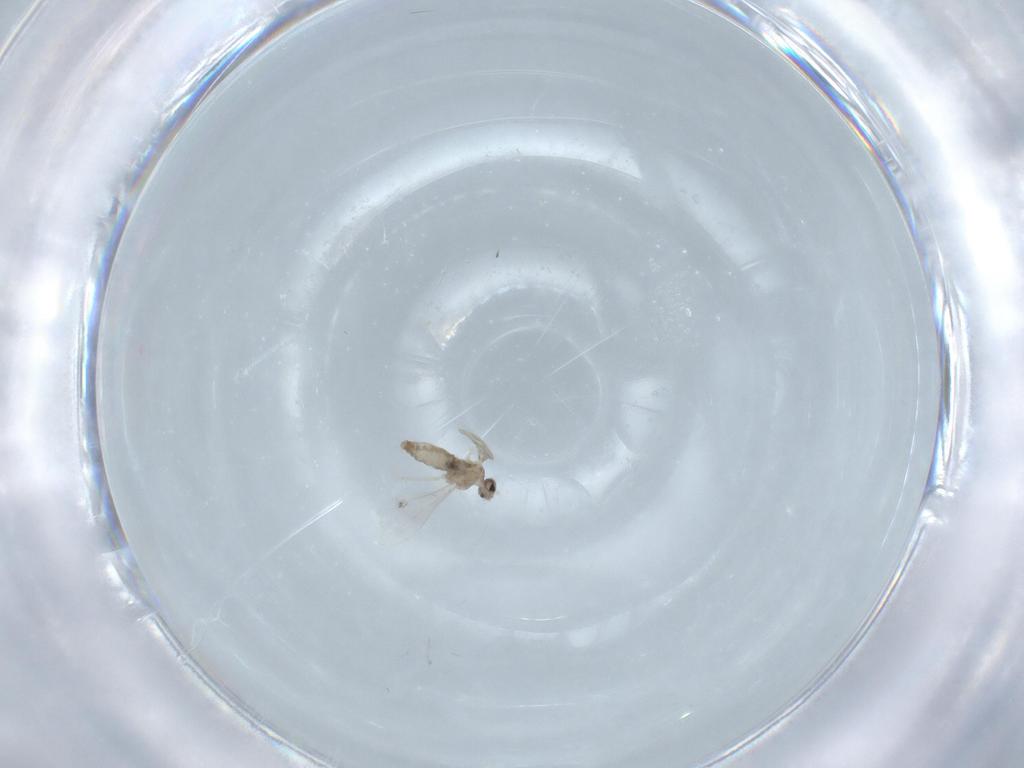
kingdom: Animalia
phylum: Arthropoda
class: Insecta
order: Diptera
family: Cecidomyiidae
